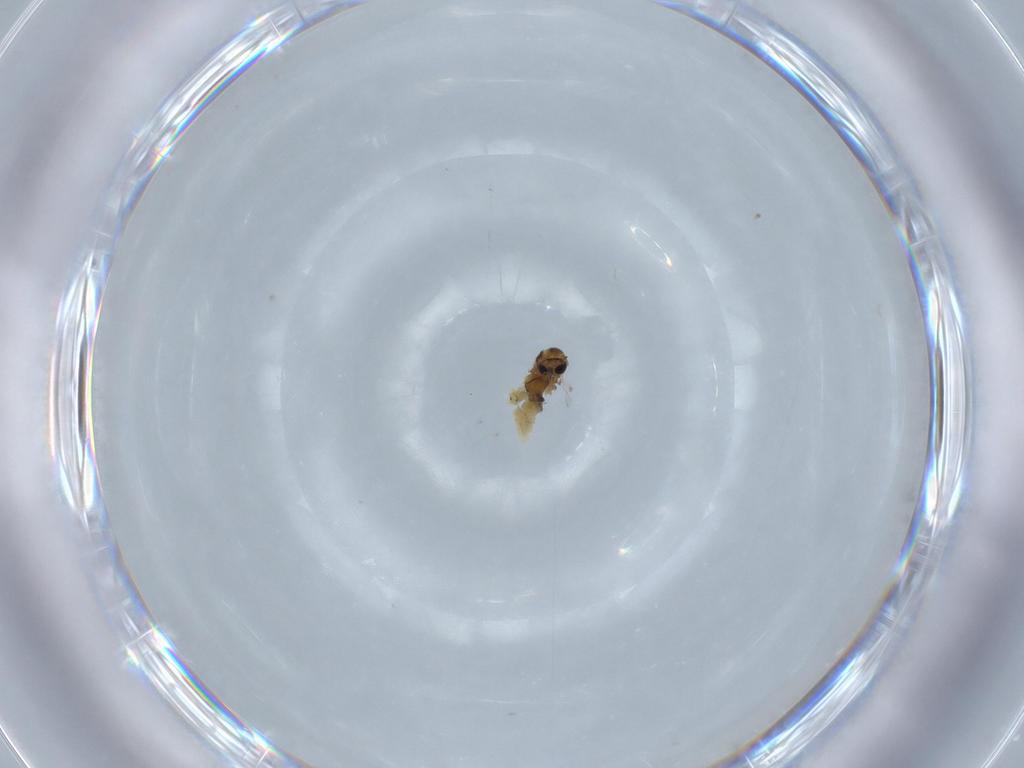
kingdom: Animalia
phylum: Arthropoda
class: Insecta
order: Diptera
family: Chironomidae
